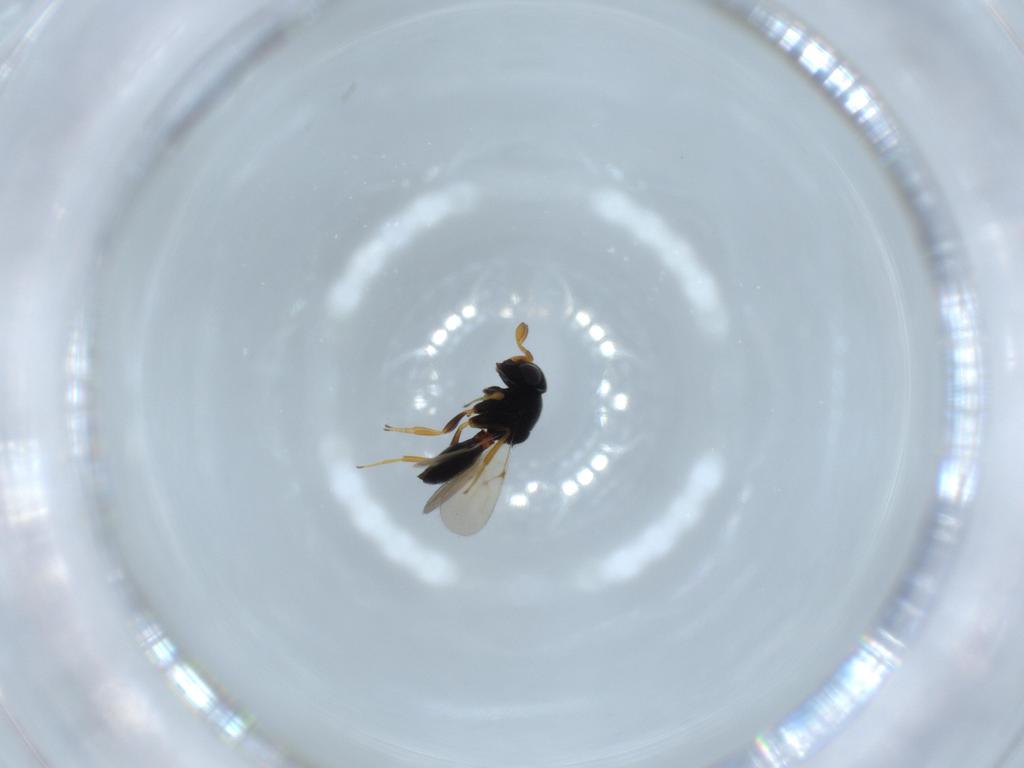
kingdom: Animalia
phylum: Arthropoda
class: Insecta
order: Hymenoptera
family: Scelionidae
